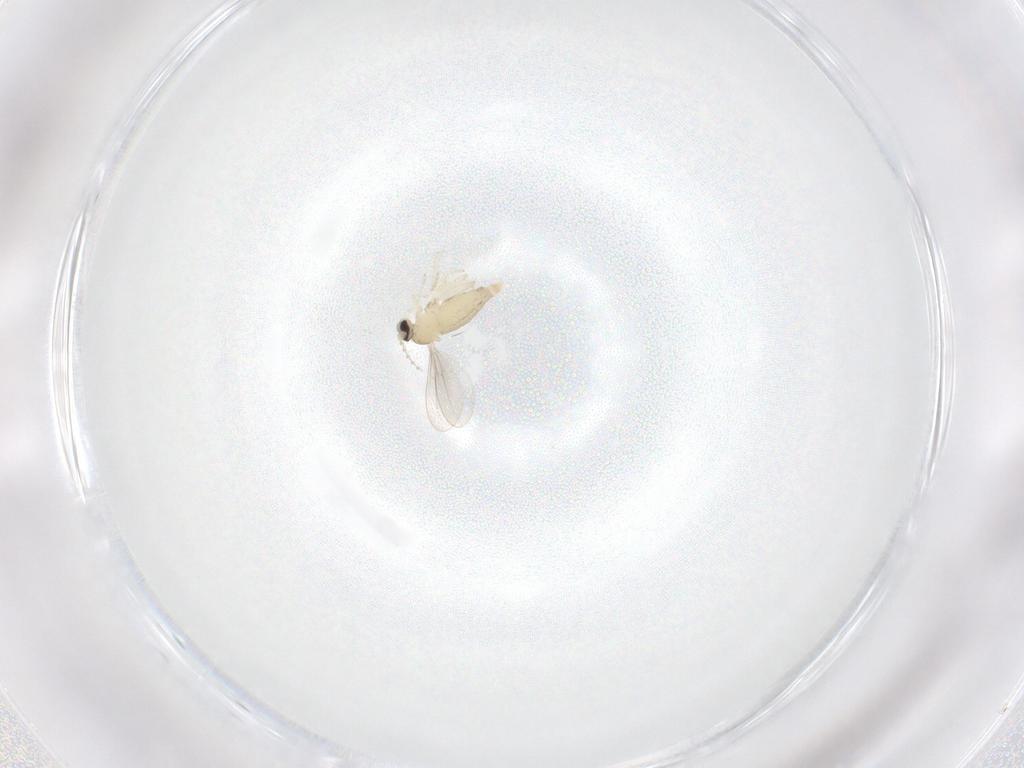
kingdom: Animalia
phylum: Arthropoda
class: Insecta
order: Diptera
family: Cecidomyiidae
